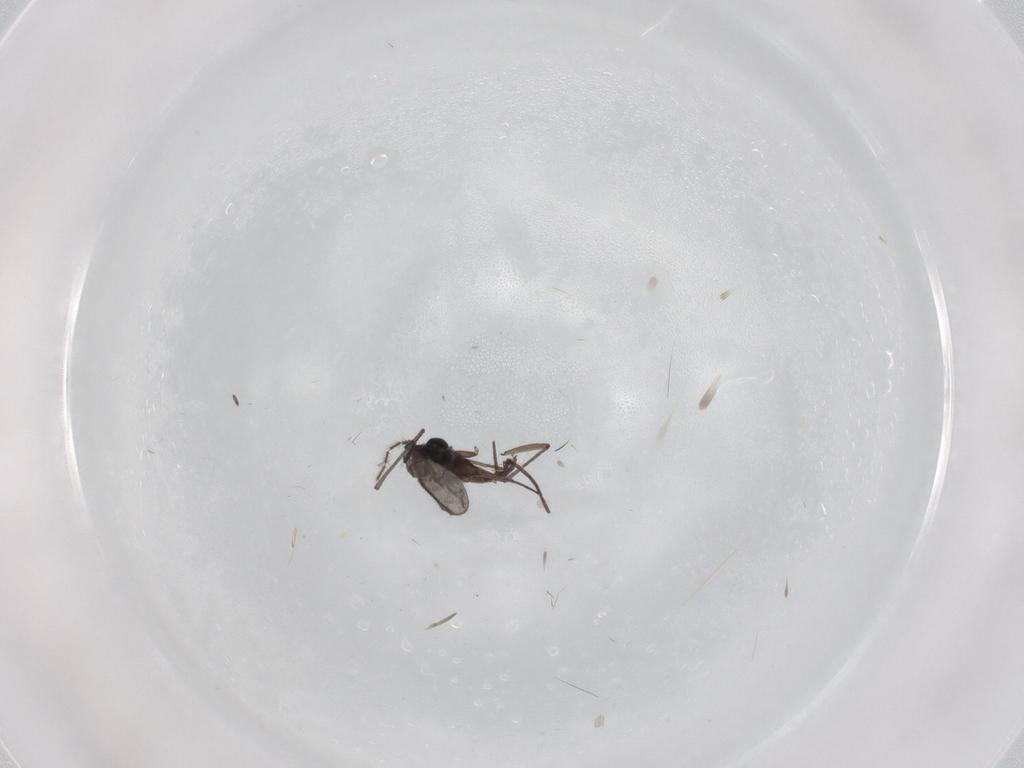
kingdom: Animalia
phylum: Arthropoda
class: Insecta
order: Diptera
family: Sciaridae
